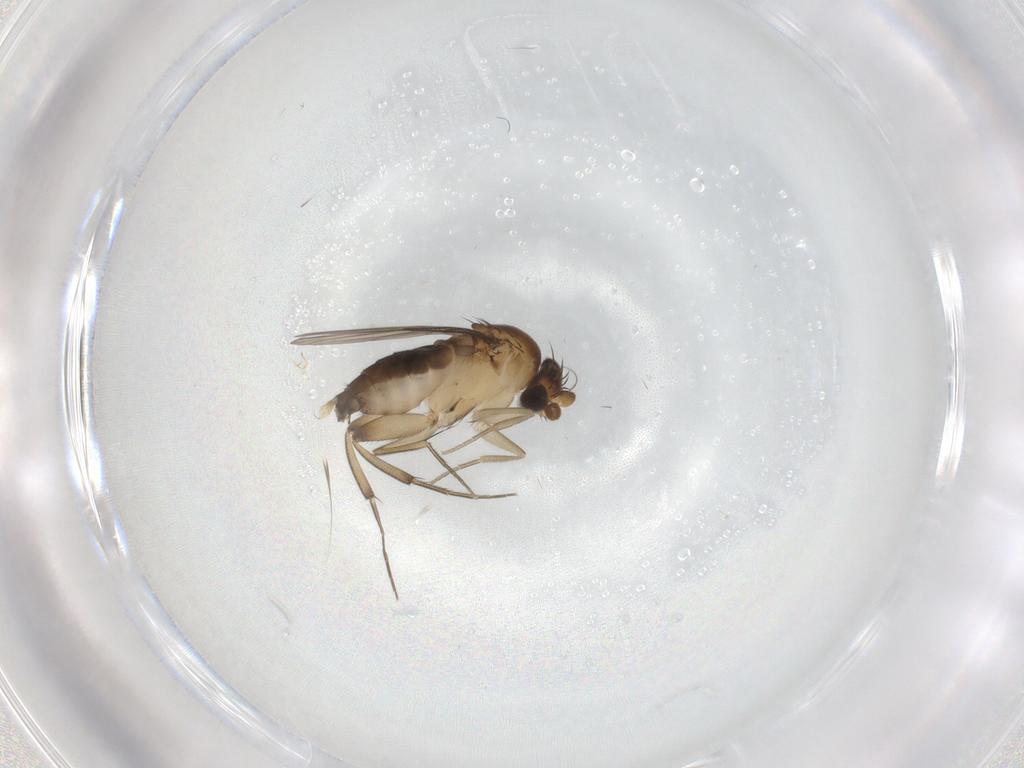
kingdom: Animalia
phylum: Arthropoda
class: Insecta
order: Diptera
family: Phoridae
